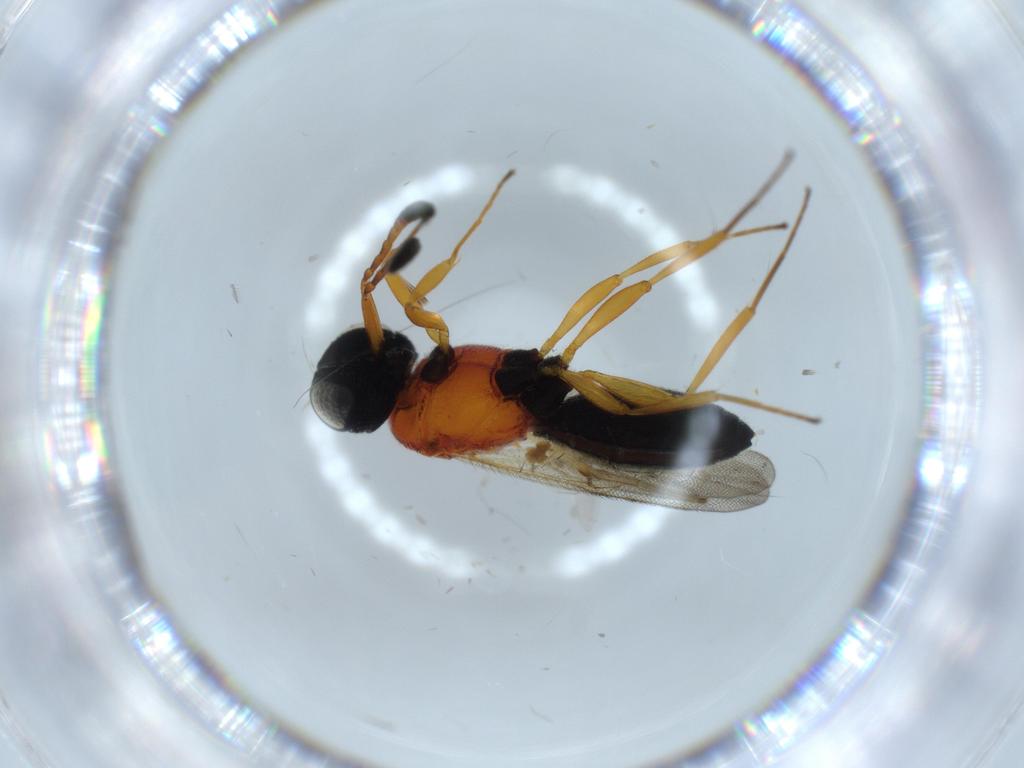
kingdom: Animalia
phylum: Arthropoda
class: Insecta
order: Hymenoptera
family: Scelionidae
